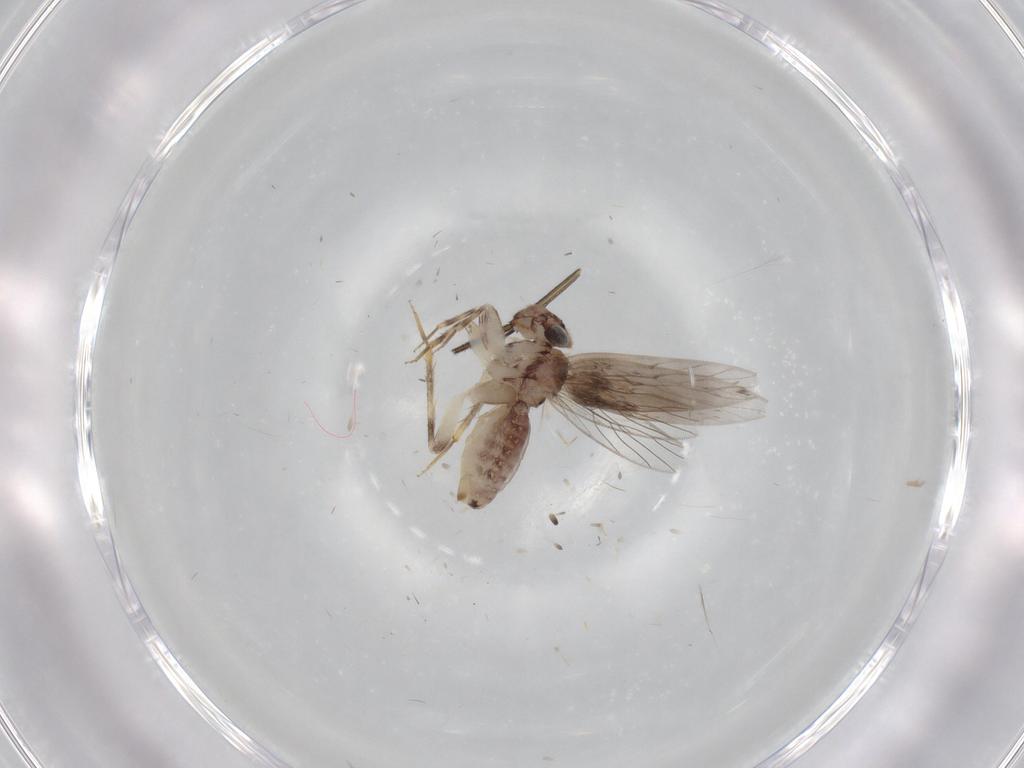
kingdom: Animalia
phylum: Arthropoda
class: Insecta
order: Psocodea
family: Lepidopsocidae
